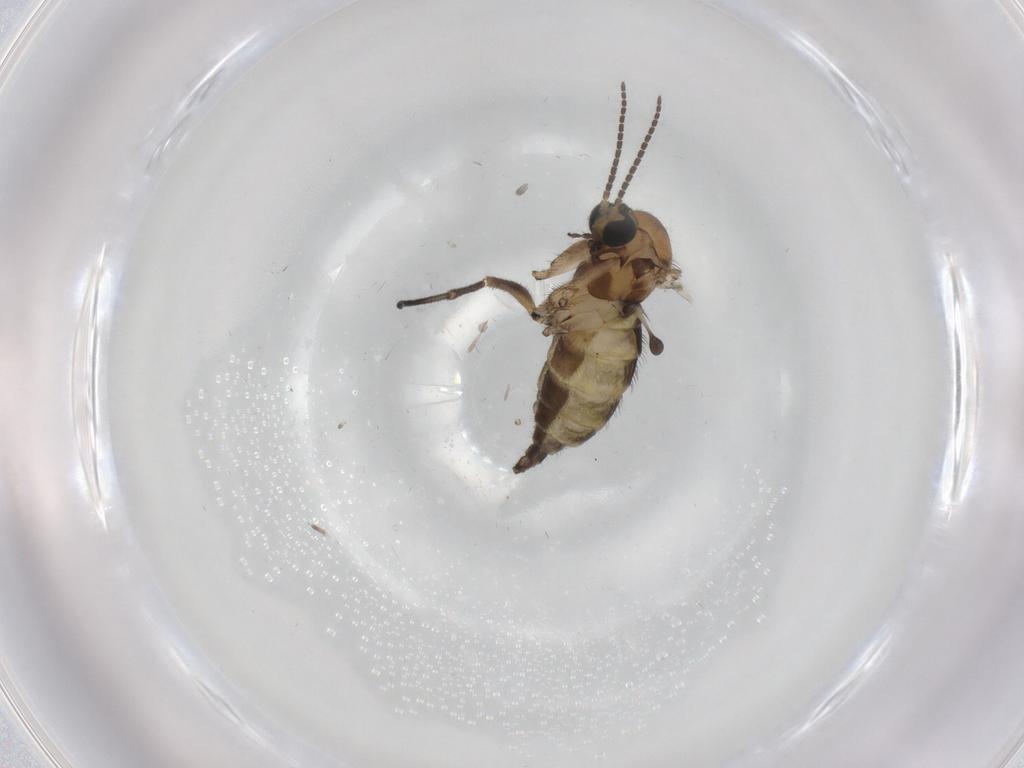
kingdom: Animalia
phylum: Arthropoda
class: Insecta
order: Diptera
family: Sciaridae
